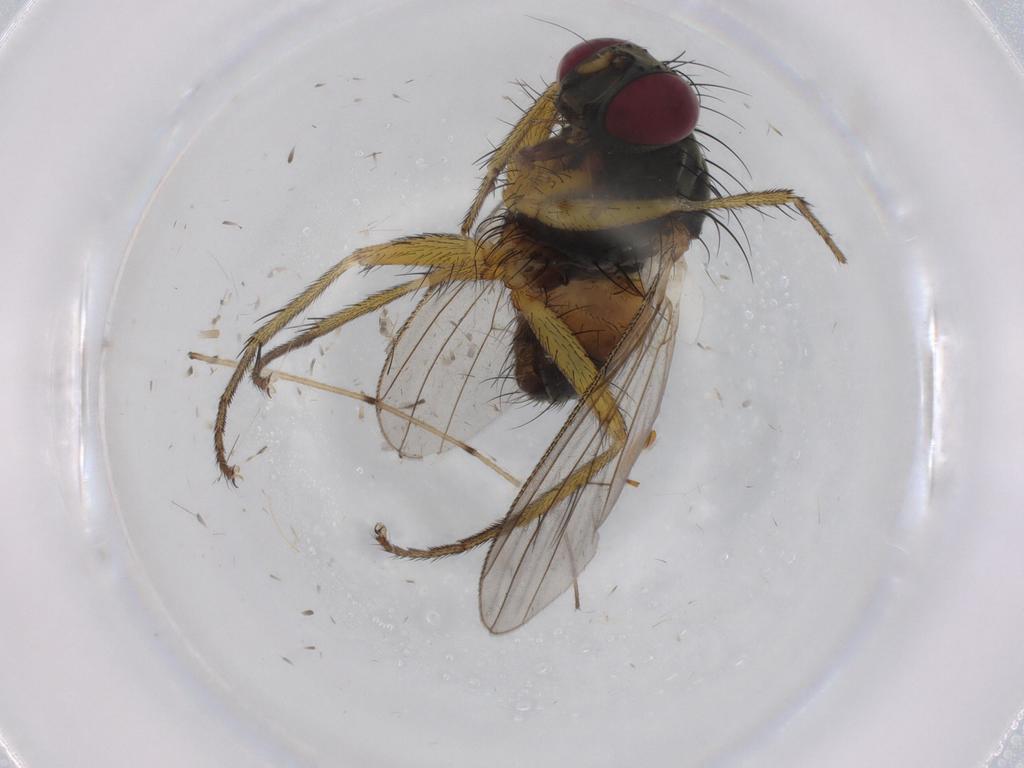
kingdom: Animalia
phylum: Arthropoda
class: Insecta
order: Diptera
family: Muscidae
